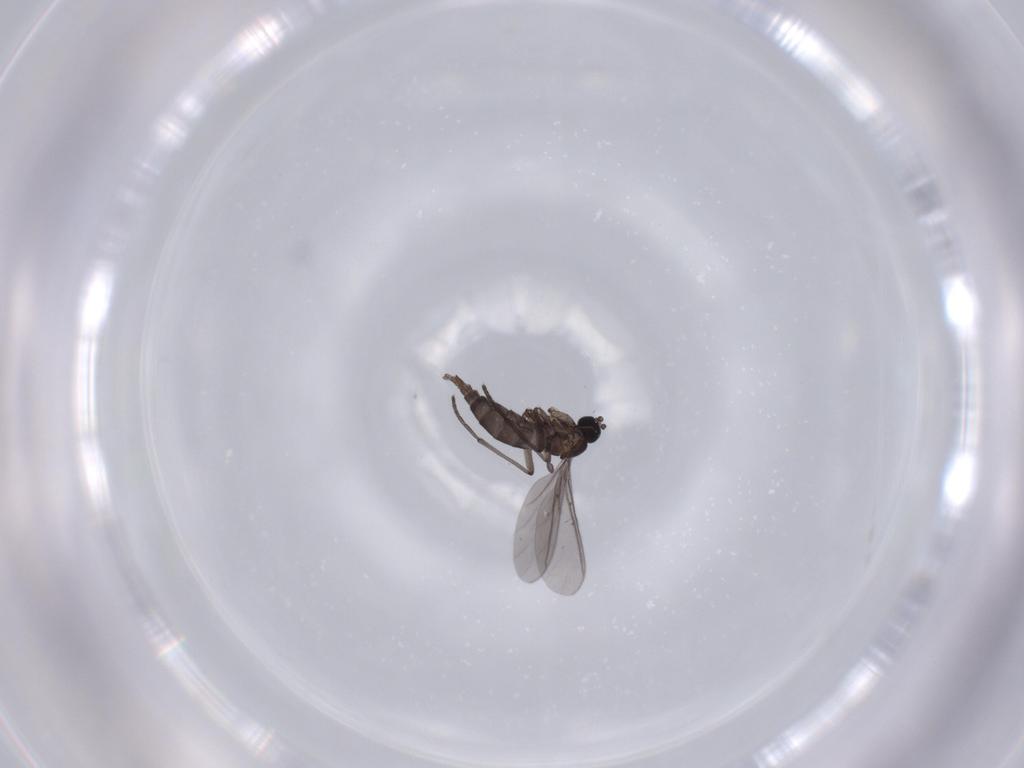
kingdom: Animalia
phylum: Arthropoda
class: Insecta
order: Diptera
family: Sciaridae
